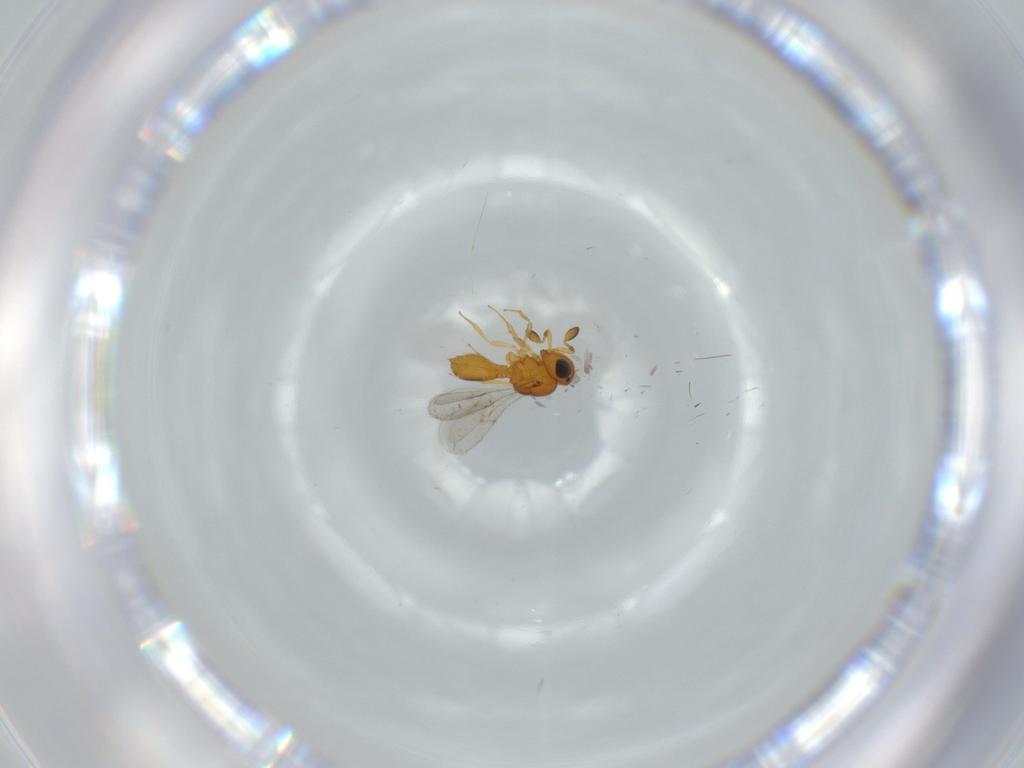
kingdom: Animalia
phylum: Arthropoda
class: Insecta
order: Hymenoptera
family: Scelionidae
